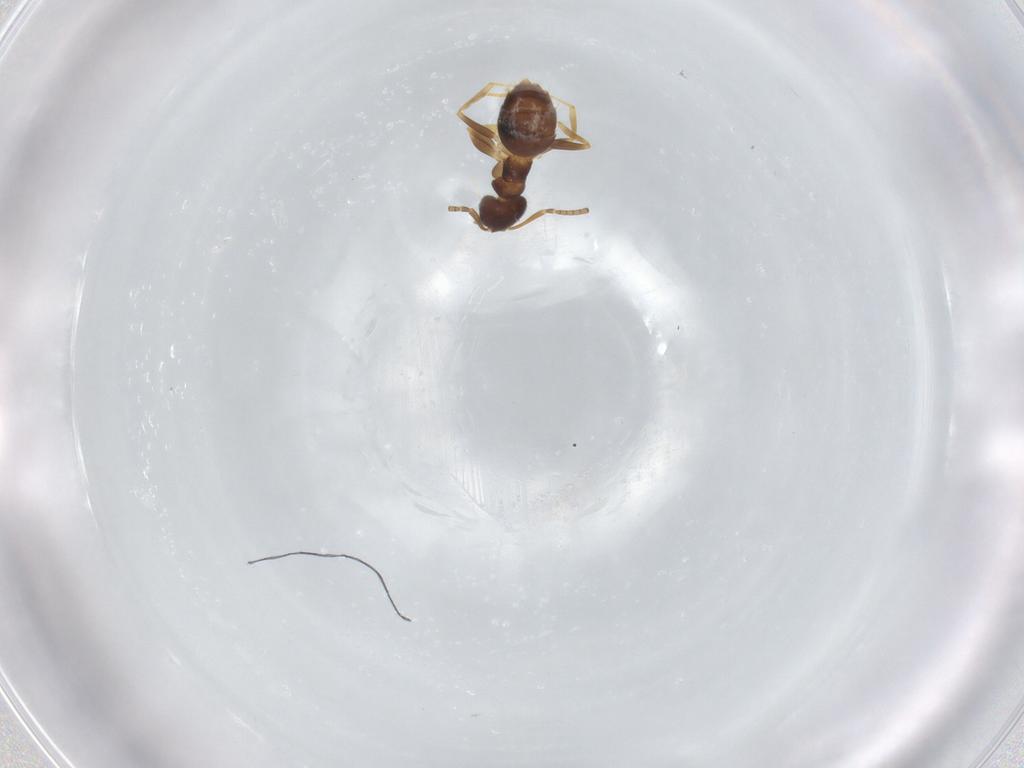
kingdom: Animalia
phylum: Arthropoda
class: Insecta
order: Hymenoptera
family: Formicidae
